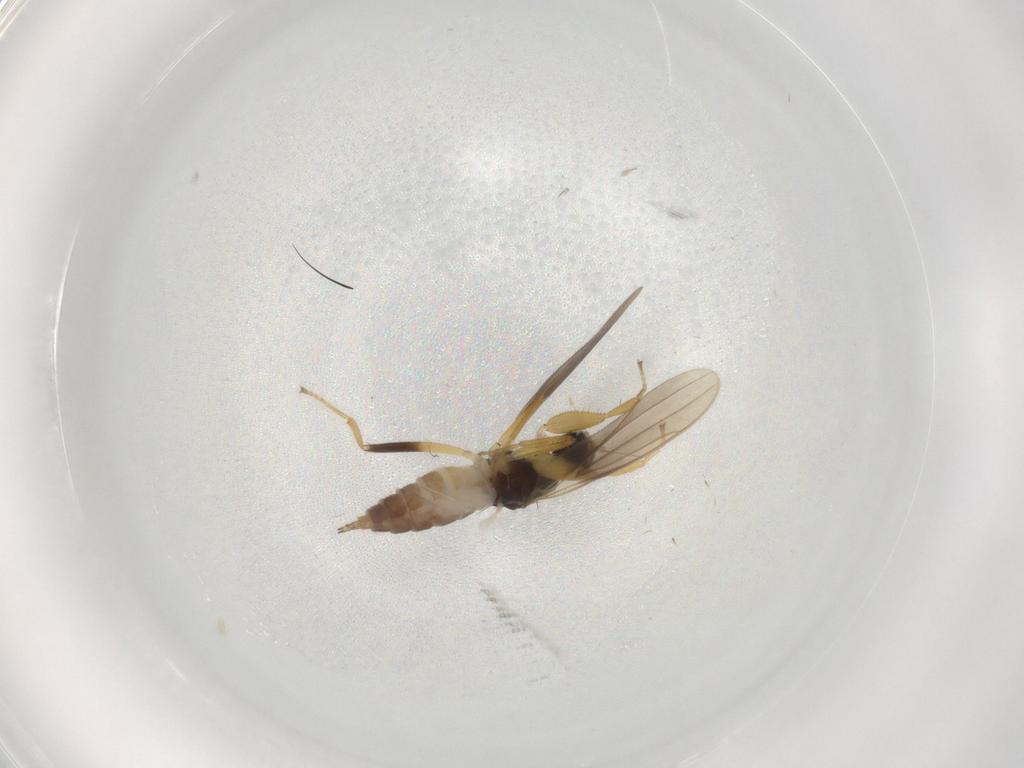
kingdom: Animalia
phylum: Arthropoda
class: Insecta
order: Diptera
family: Hybotidae
